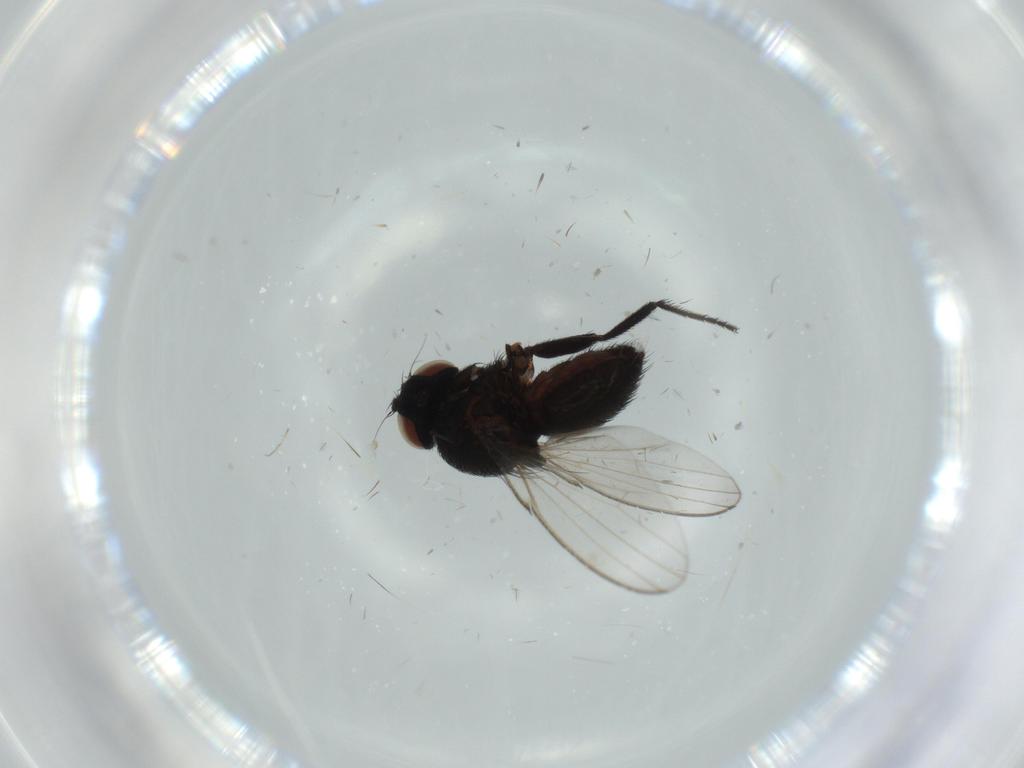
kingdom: Animalia
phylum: Arthropoda
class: Insecta
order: Diptera
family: Milichiidae
